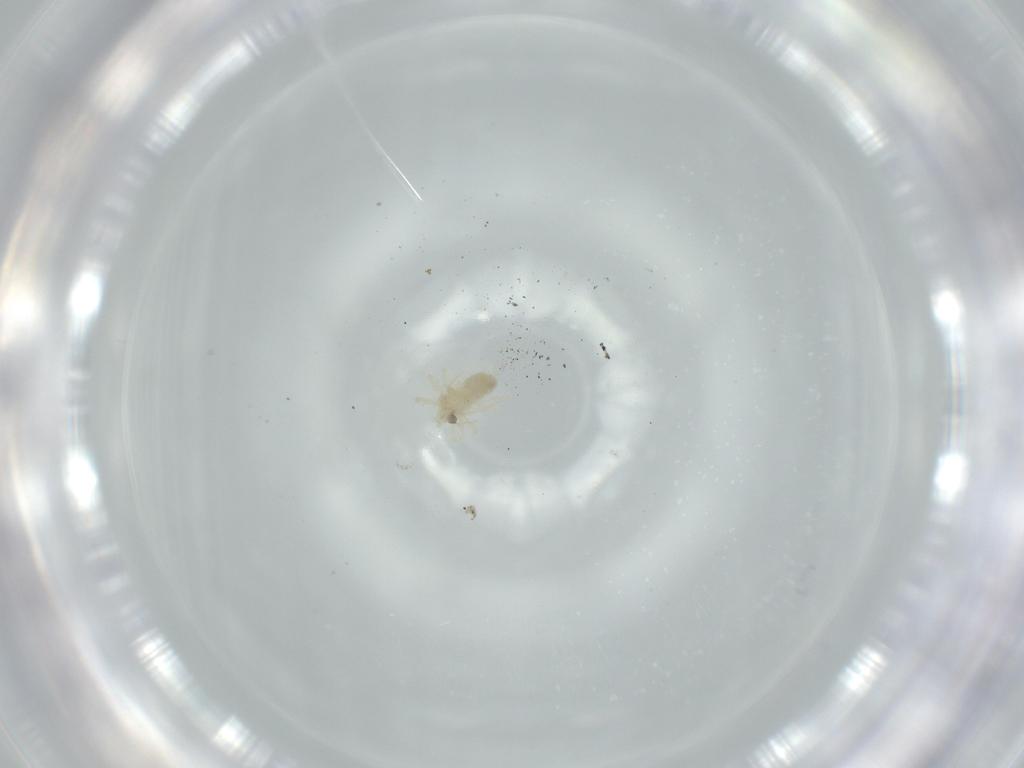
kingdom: Animalia
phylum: Arthropoda
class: Arachnida
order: Trombidiformes
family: Anystidae
